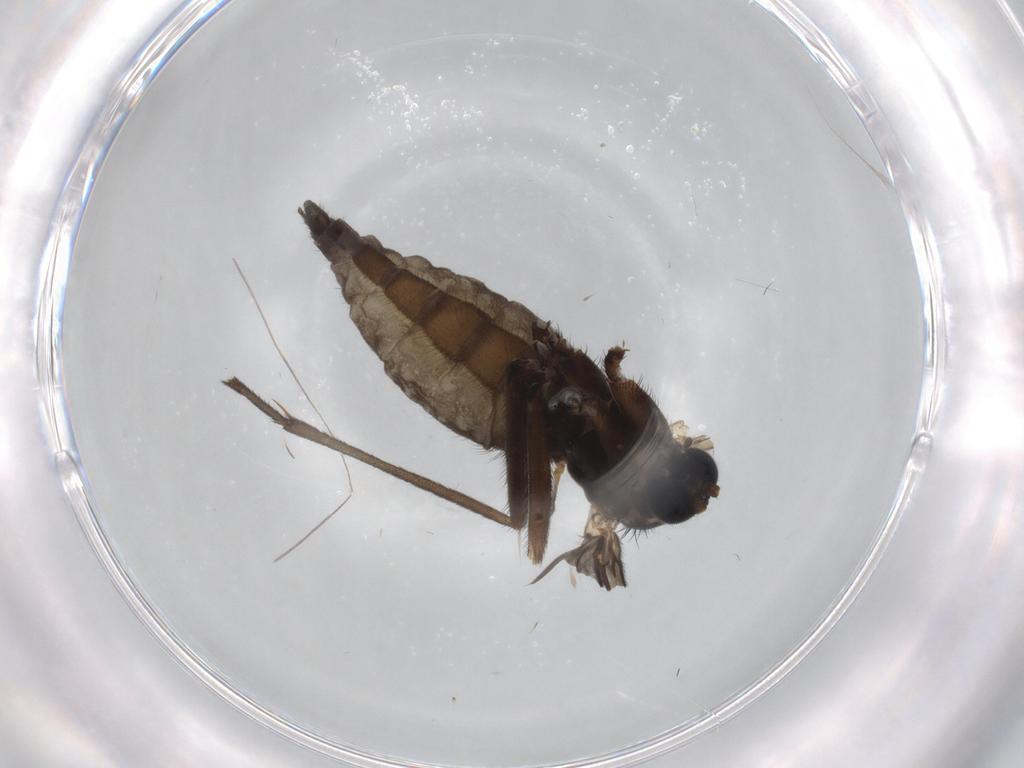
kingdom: Animalia
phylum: Arthropoda
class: Insecta
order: Diptera
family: Sciaridae
